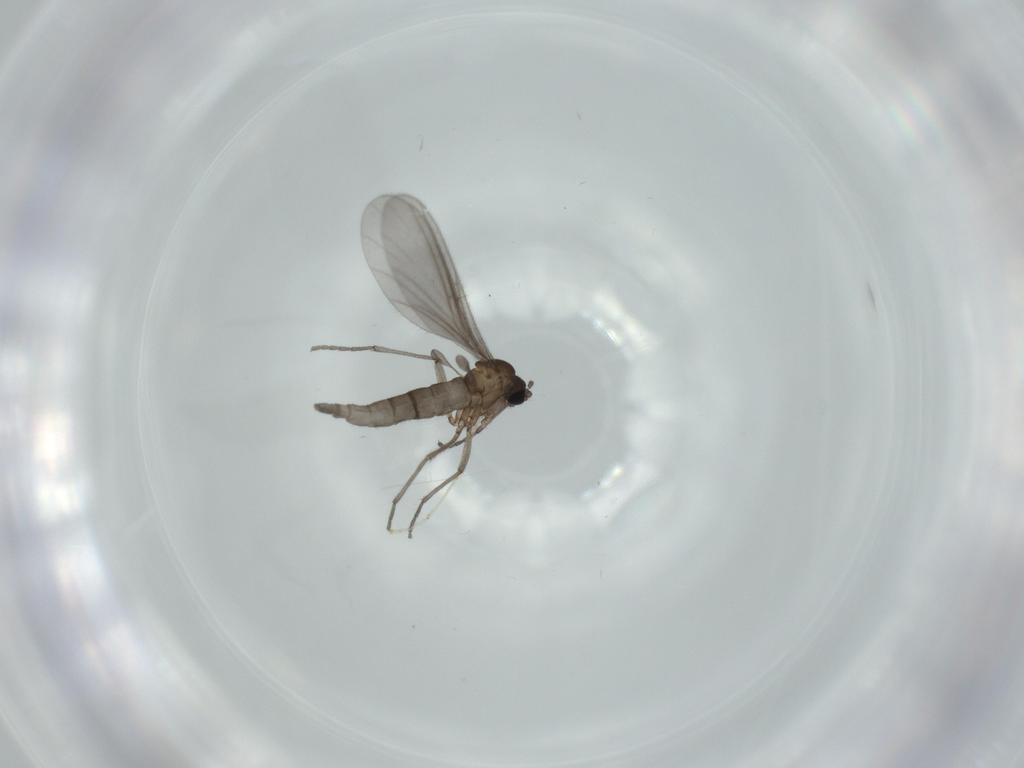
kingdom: Animalia
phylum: Arthropoda
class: Insecta
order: Diptera
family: Sciaridae
